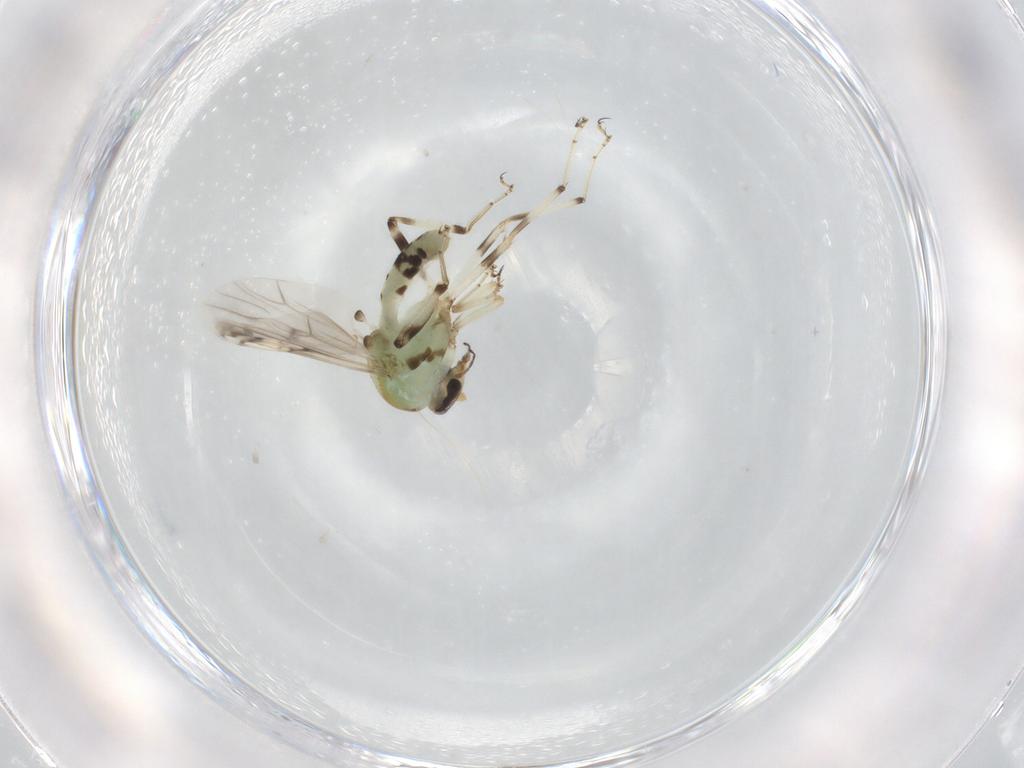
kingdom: Animalia
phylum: Arthropoda
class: Insecta
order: Diptera
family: Ceratopogonidae
